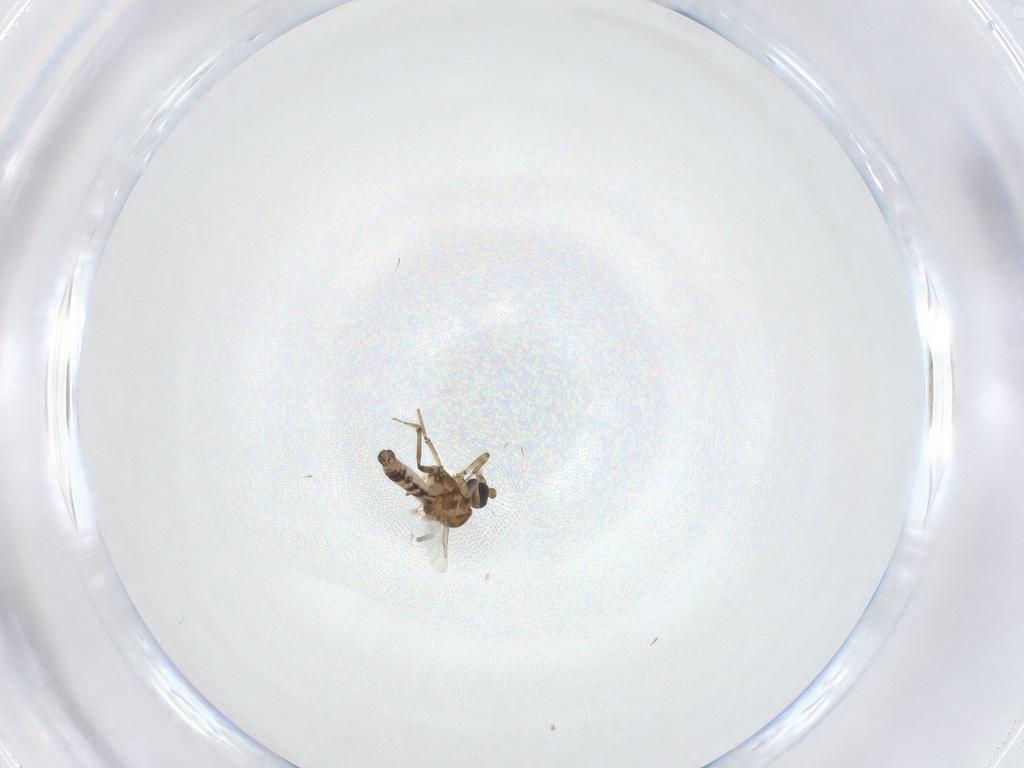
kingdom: Animalia
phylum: Arthropoda
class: Insecta
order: Diptera
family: Ceratopogonidae
